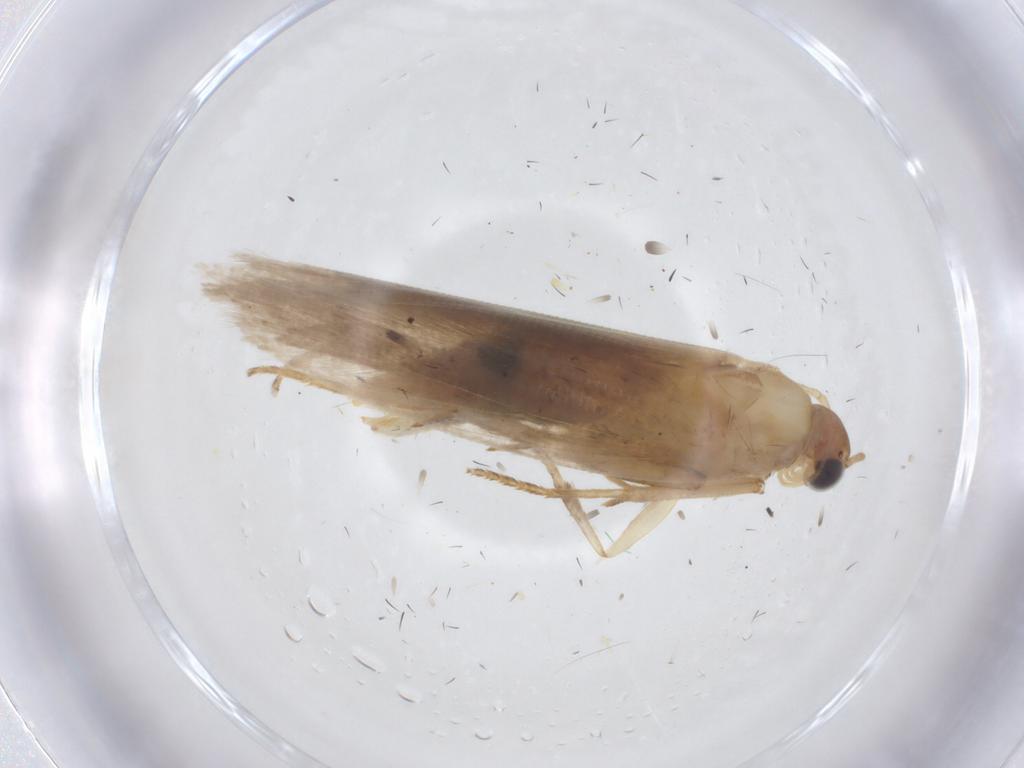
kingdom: Animalia
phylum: Arthropoda
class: Insecta
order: Lepidoptera
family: Gelechiidae
